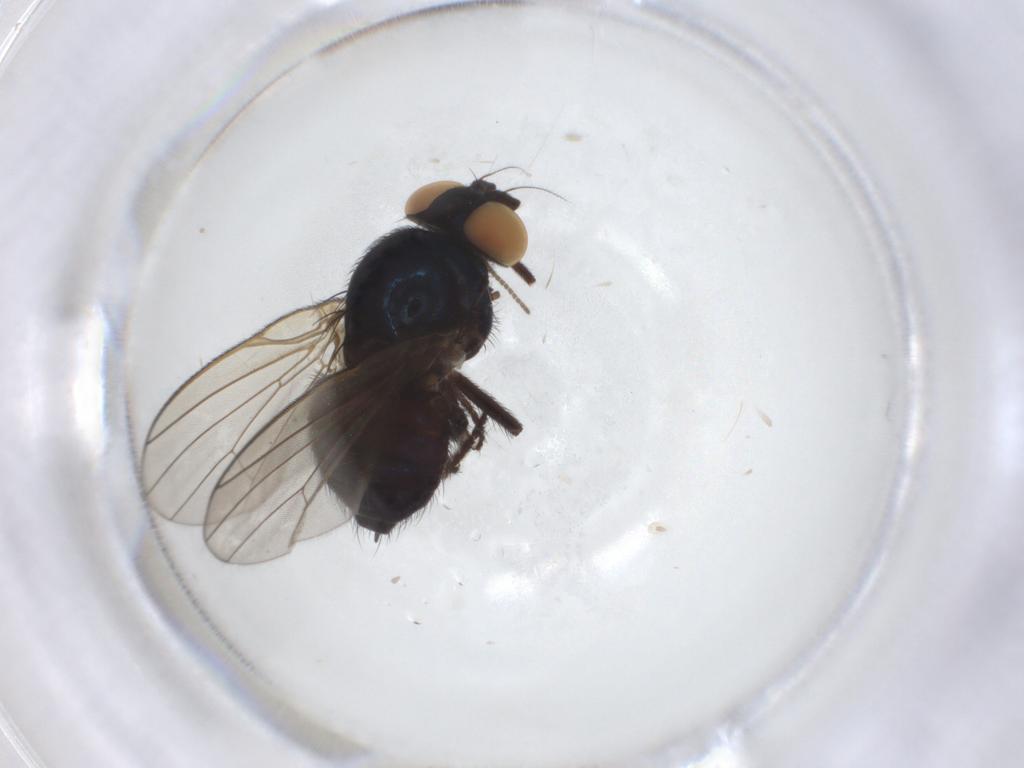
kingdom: Animalia
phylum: Arthropoda
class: Insecta
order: Diptera
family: Lonchaeidae
